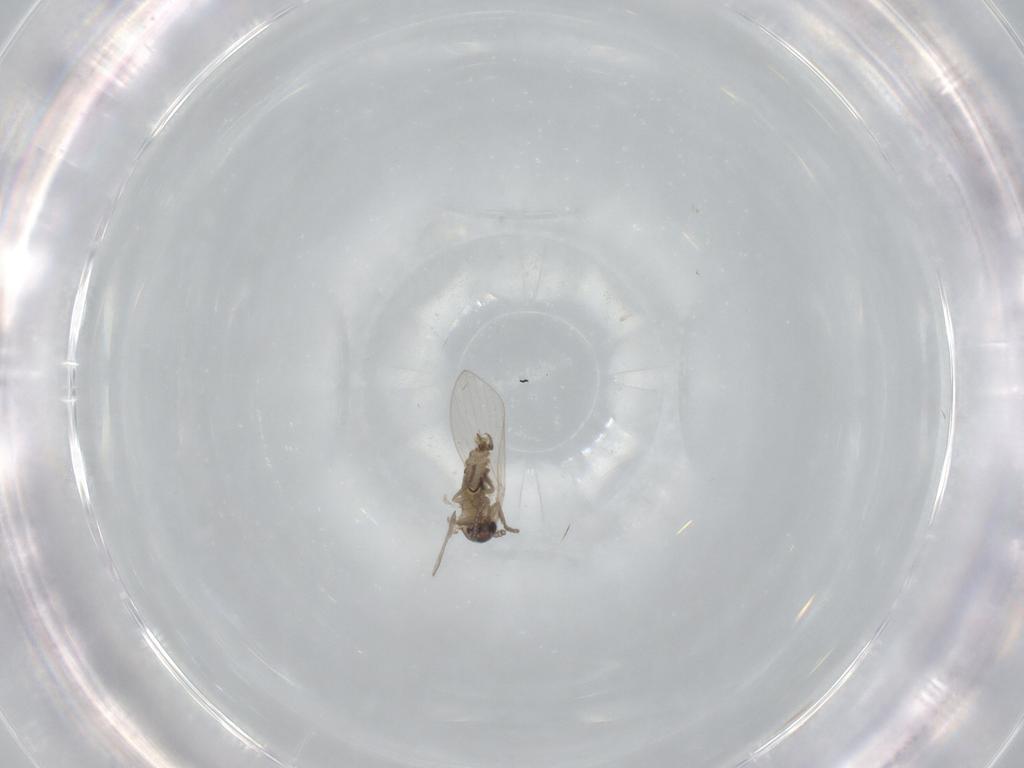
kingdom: Animalia
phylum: Arthropoda
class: Insecta
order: Diptera
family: Psychodidae
